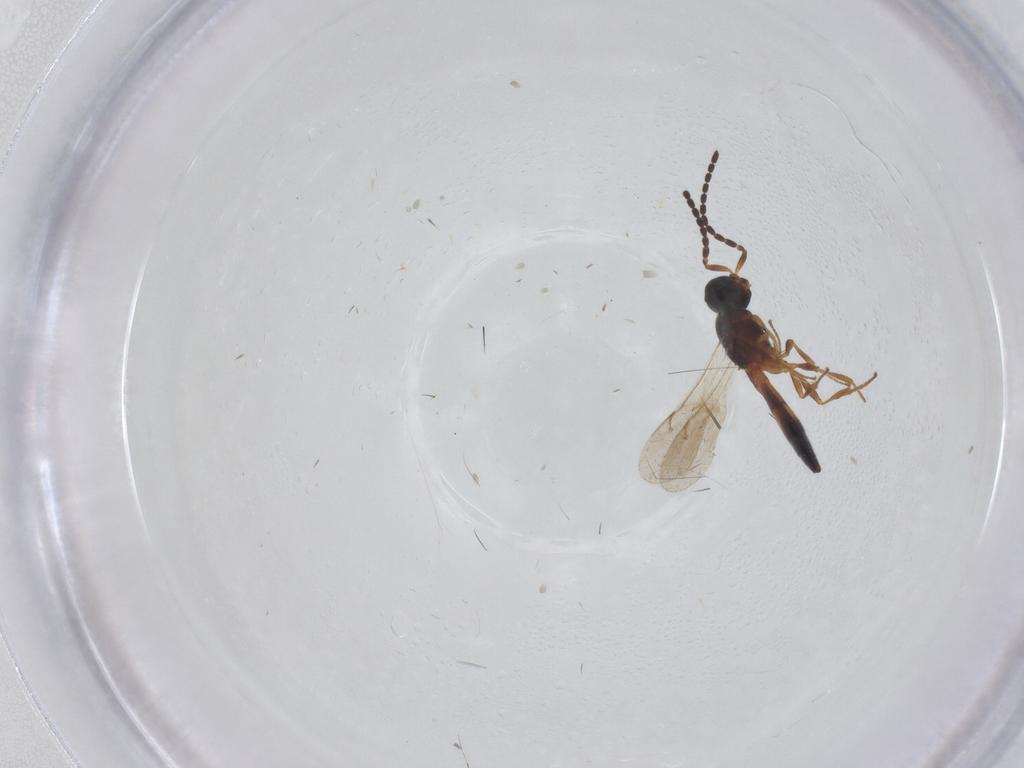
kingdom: Animalia
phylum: Arthropoda
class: Insecta
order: Hymenoptera
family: Scelionidae
